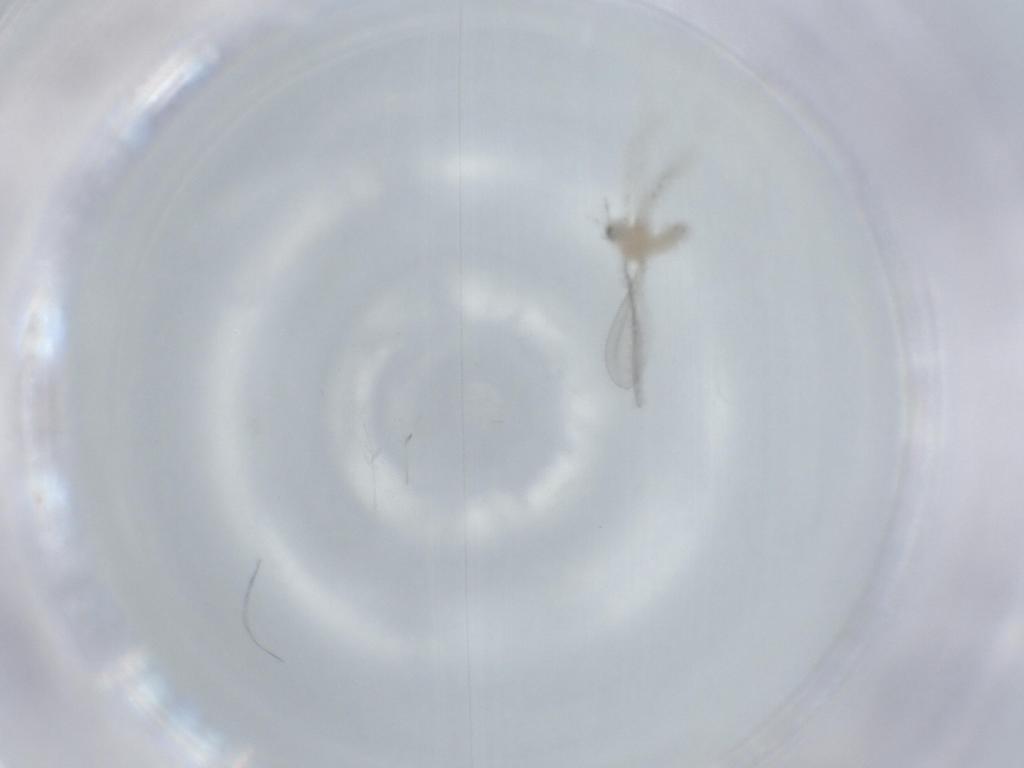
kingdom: Animalia
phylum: Arthropoda
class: Insecta
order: Diptera
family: Cecidomyiidae
